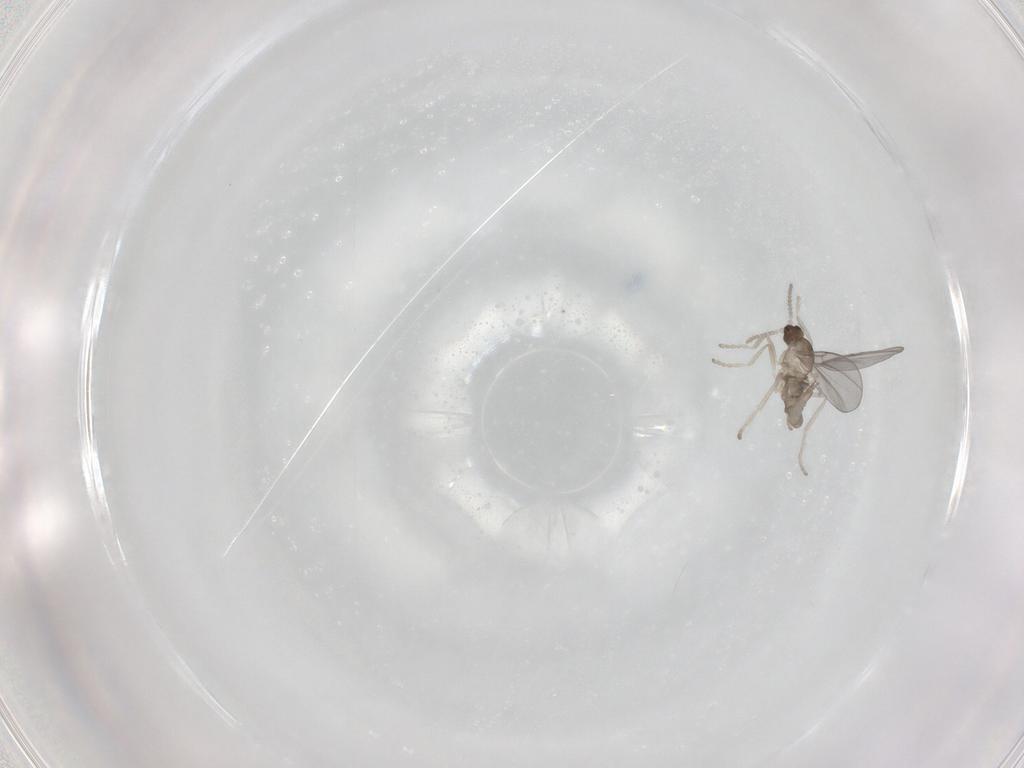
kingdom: Animalia
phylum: Arthropoda
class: Insecta
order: Diptera
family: Cecidomyiidae
